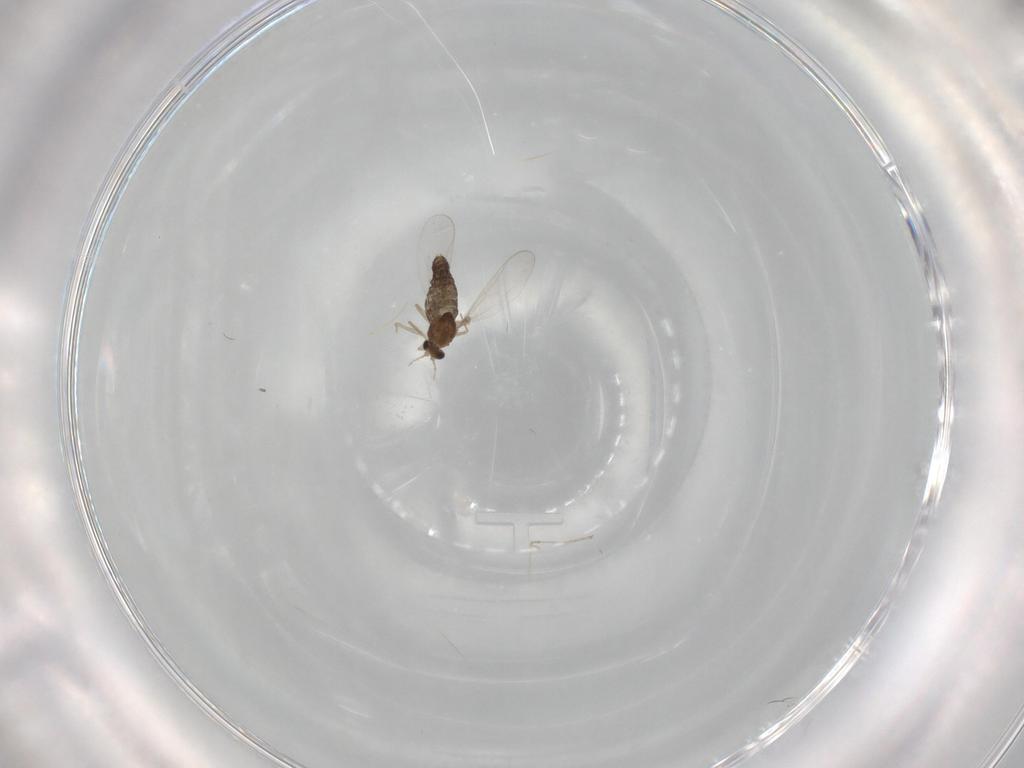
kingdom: Animalia
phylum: Arthropoda
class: Insecta
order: Diptera
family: Chironomidae
